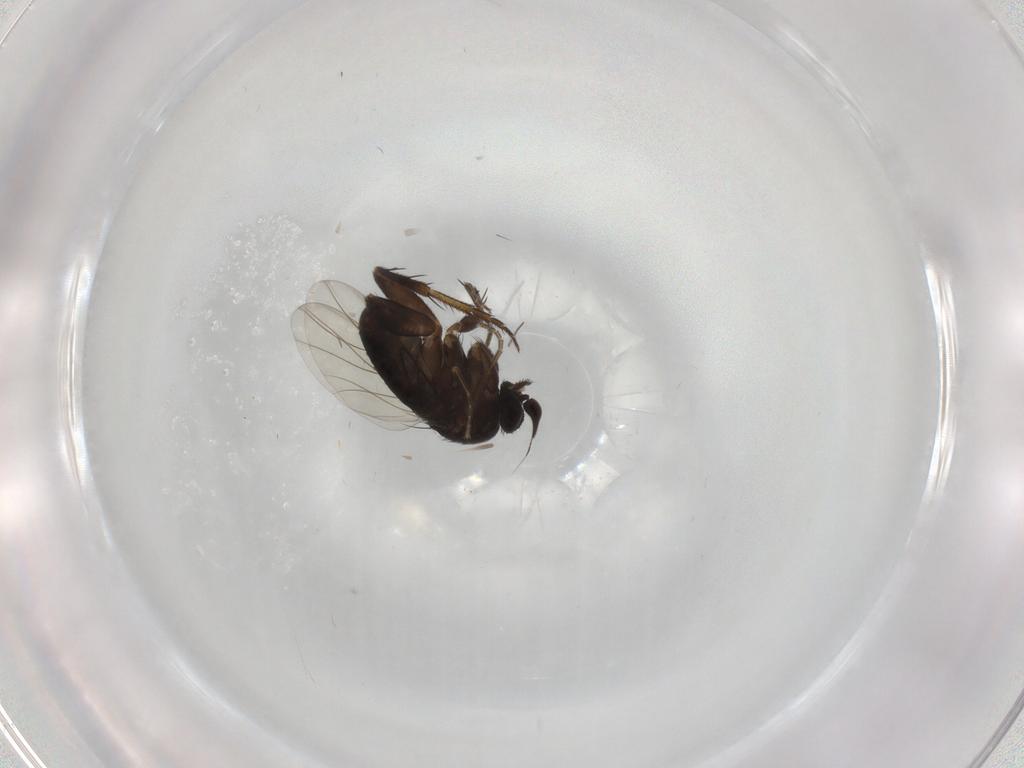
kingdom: Animalia
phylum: Arthropoda
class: Insecta
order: Diptera
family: Phoridae
